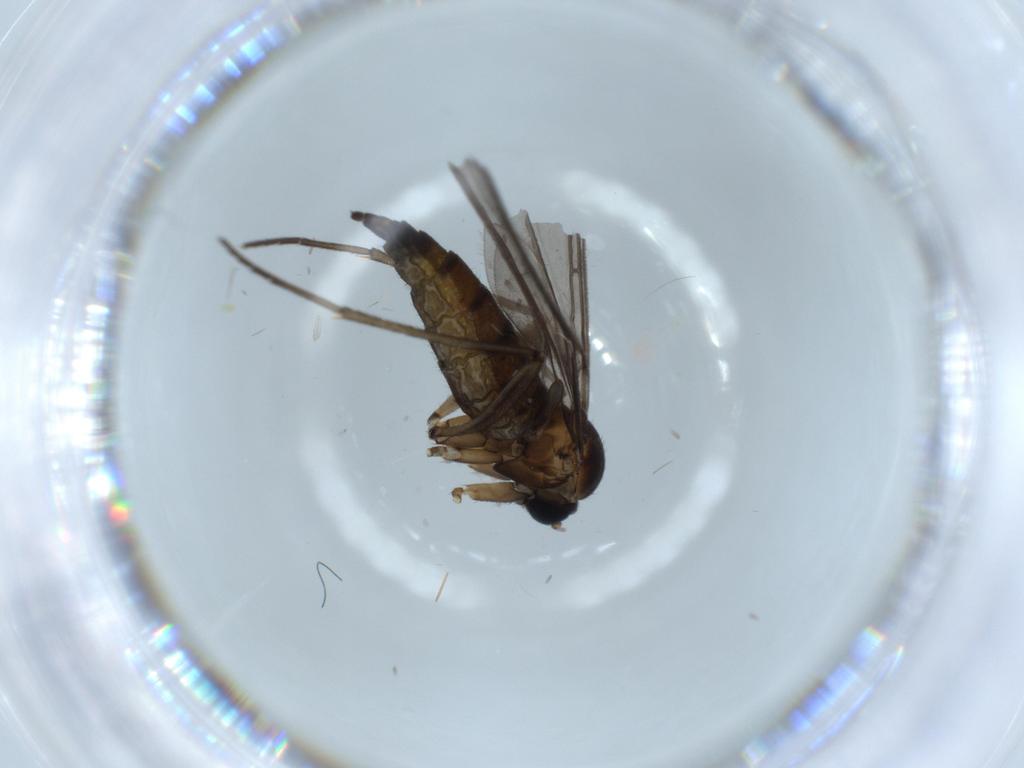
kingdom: Animalia
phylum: Arthropoda
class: Insecta
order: Diptera
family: Sciaridae
